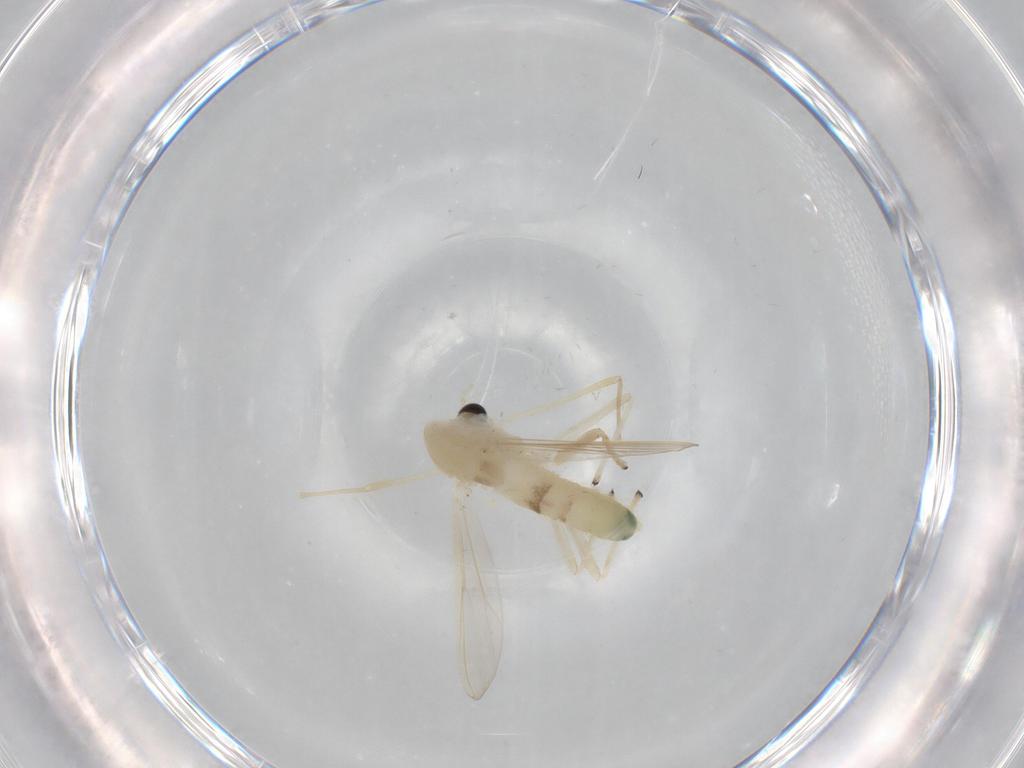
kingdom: Animalia
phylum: Arthropoda
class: Insecta
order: Diptera
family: Chironomidae
